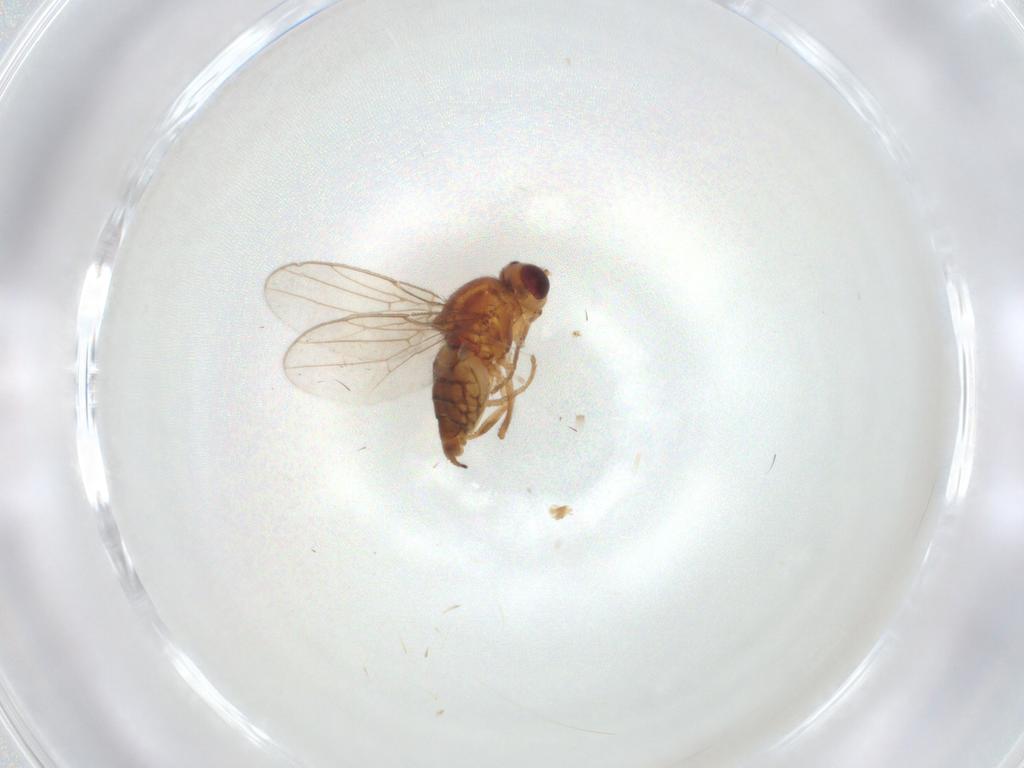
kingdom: Animalia
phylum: Arthropoda
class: Insecta
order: Diptera
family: Chloropidae
